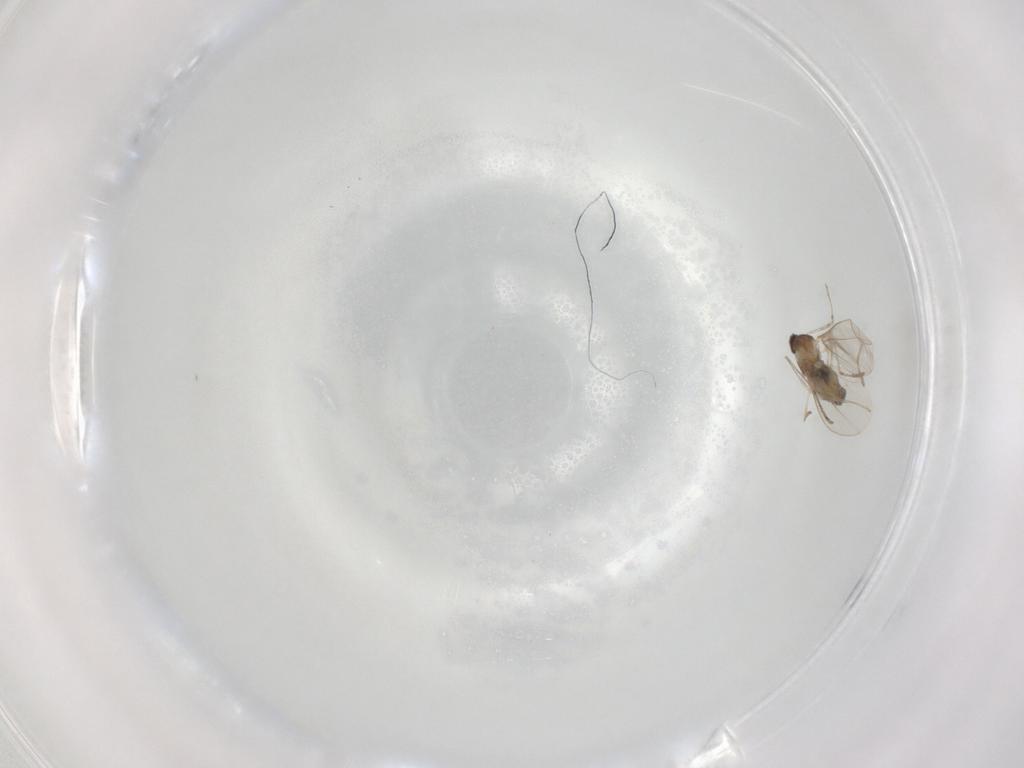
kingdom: Animalia
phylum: Arthropoda
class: Insecta
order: Diptera
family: Cecidomyiidae
